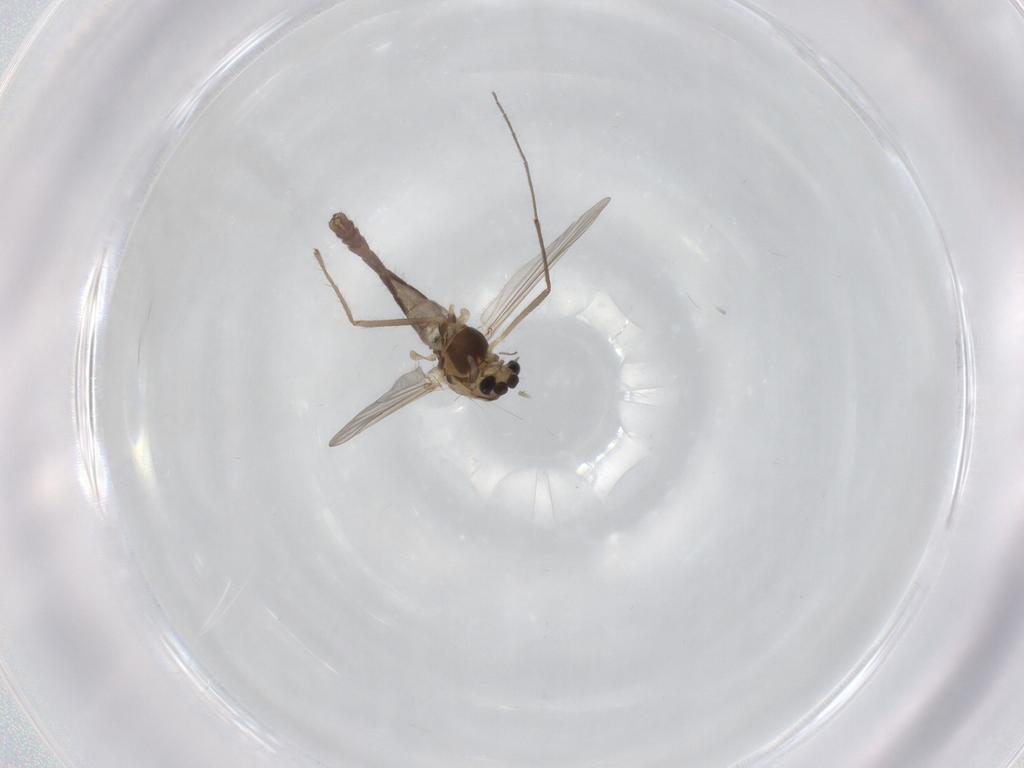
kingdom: Animalia
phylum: Arthropoda
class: Insecta
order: Diptera
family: Chironomidae
